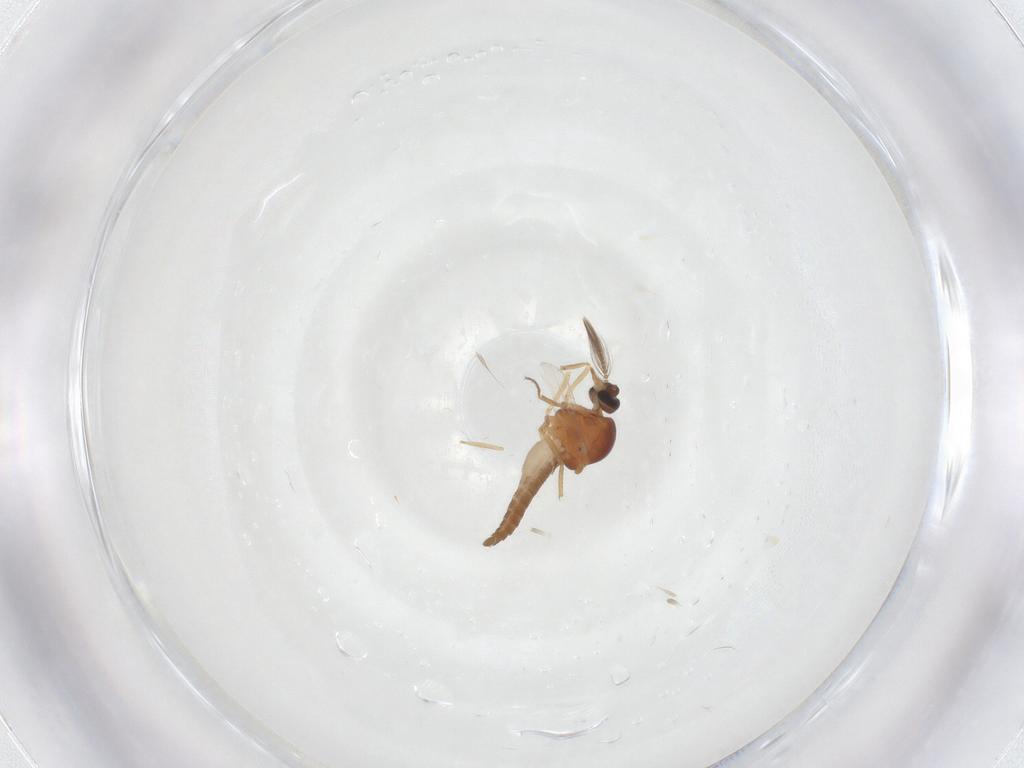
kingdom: Animalia
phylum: Arthropoda
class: Insecta
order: Diptera
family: Ceratopogonidae
